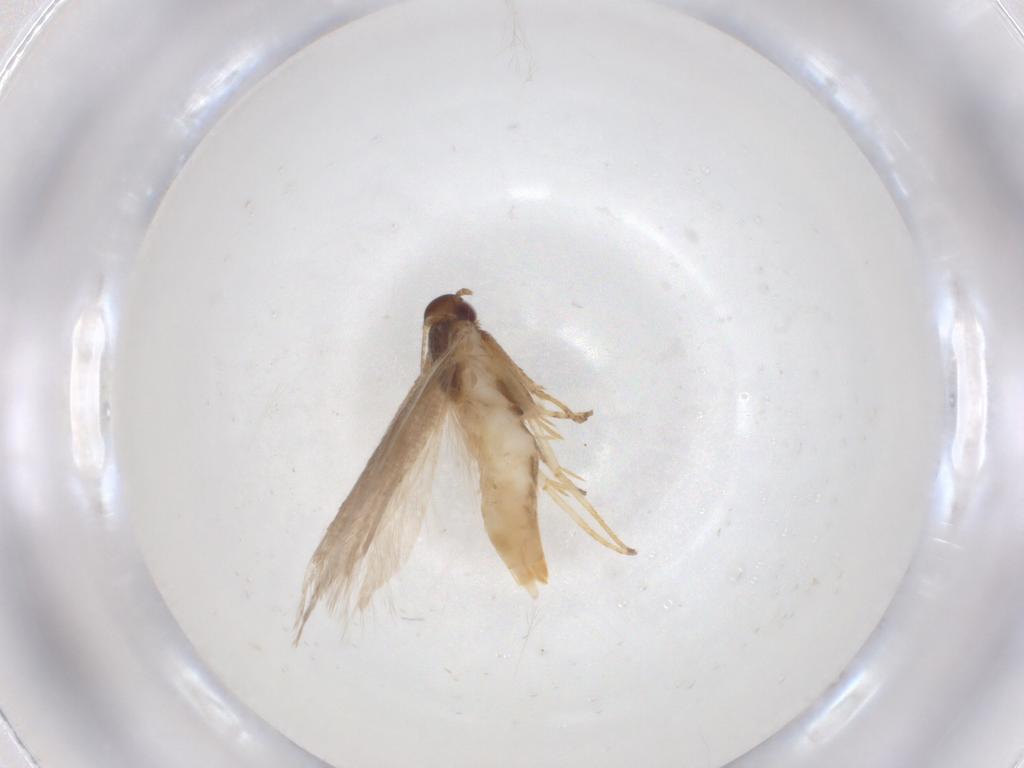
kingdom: Animalia
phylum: Arthropoda
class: Insecta
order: Lepidoptera
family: Gelechiidae
